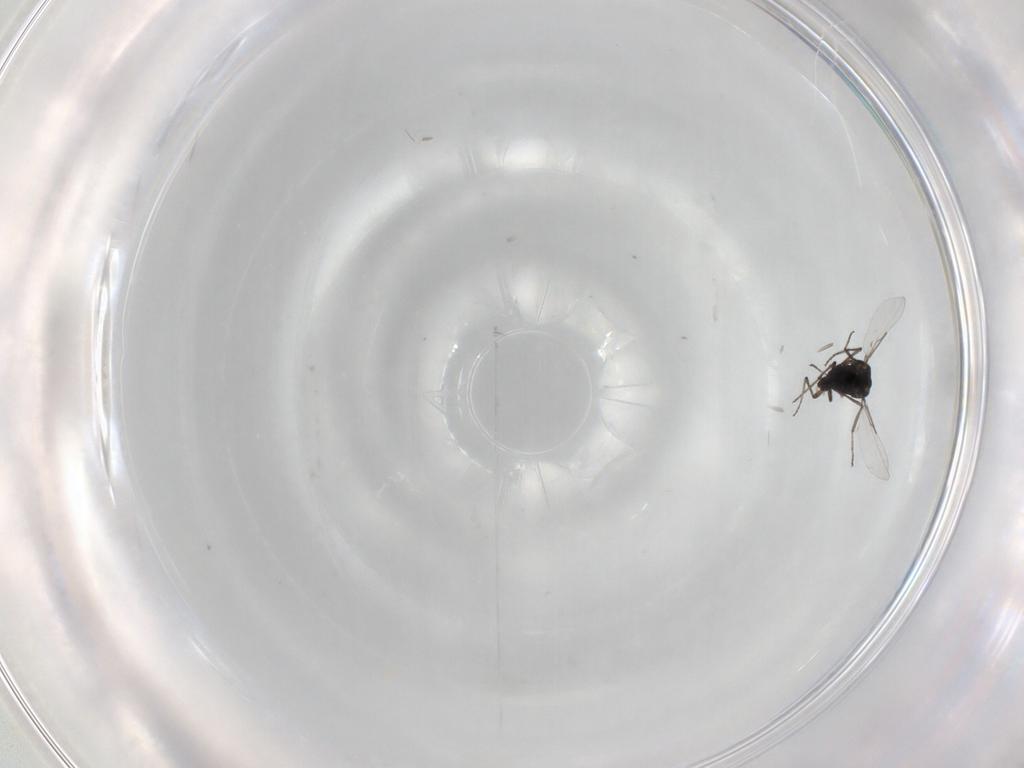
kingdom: Animalia
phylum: Arthropoda
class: Insecta
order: Diptera
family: Ceratopogonidae
